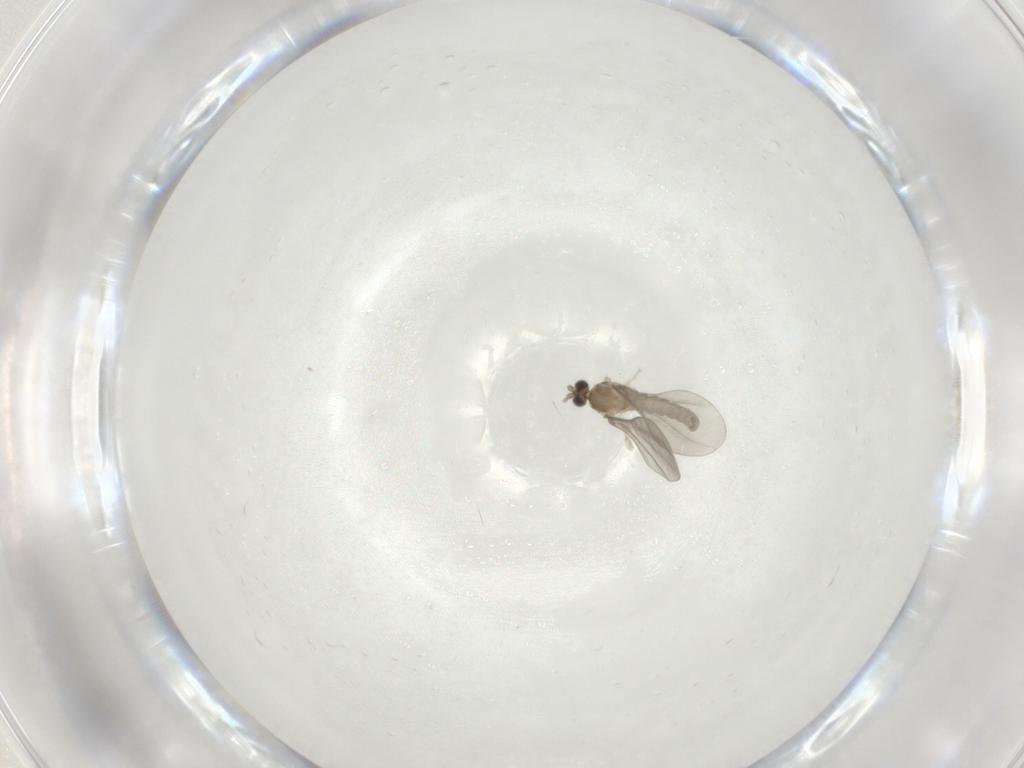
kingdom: Animalia
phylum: Arthropoda
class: Insecta
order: Diptera
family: Cecidomyiidae
